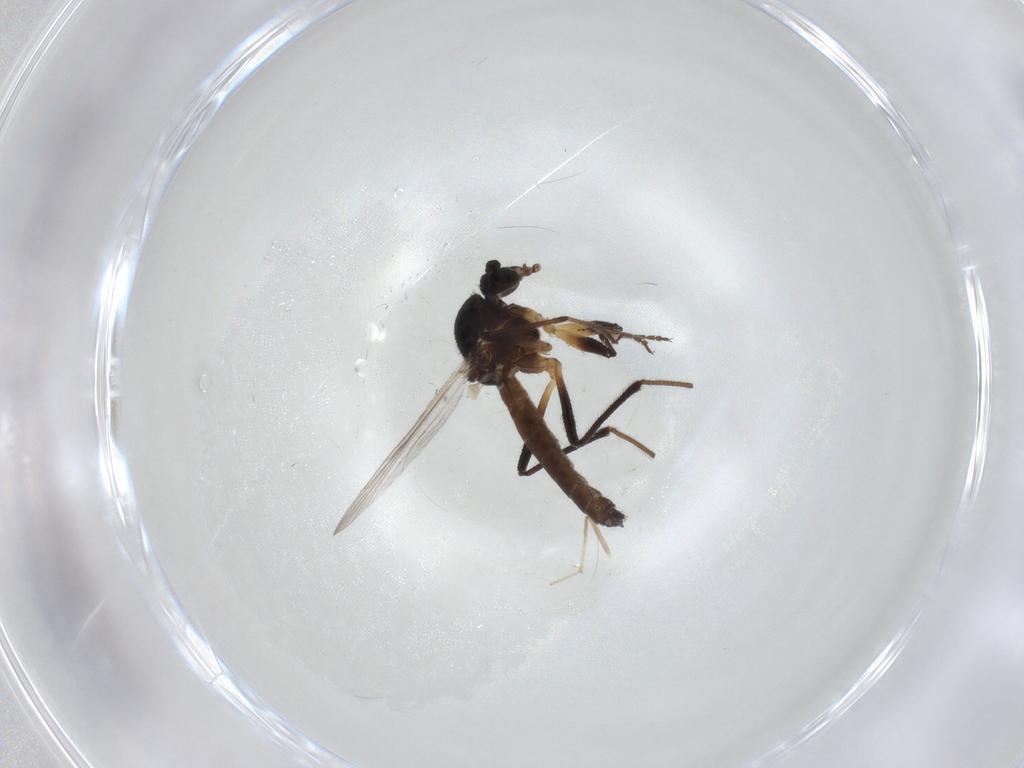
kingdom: Animalia
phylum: Arthropoda
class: Insecta
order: Diptera
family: Ceratopogonidae
